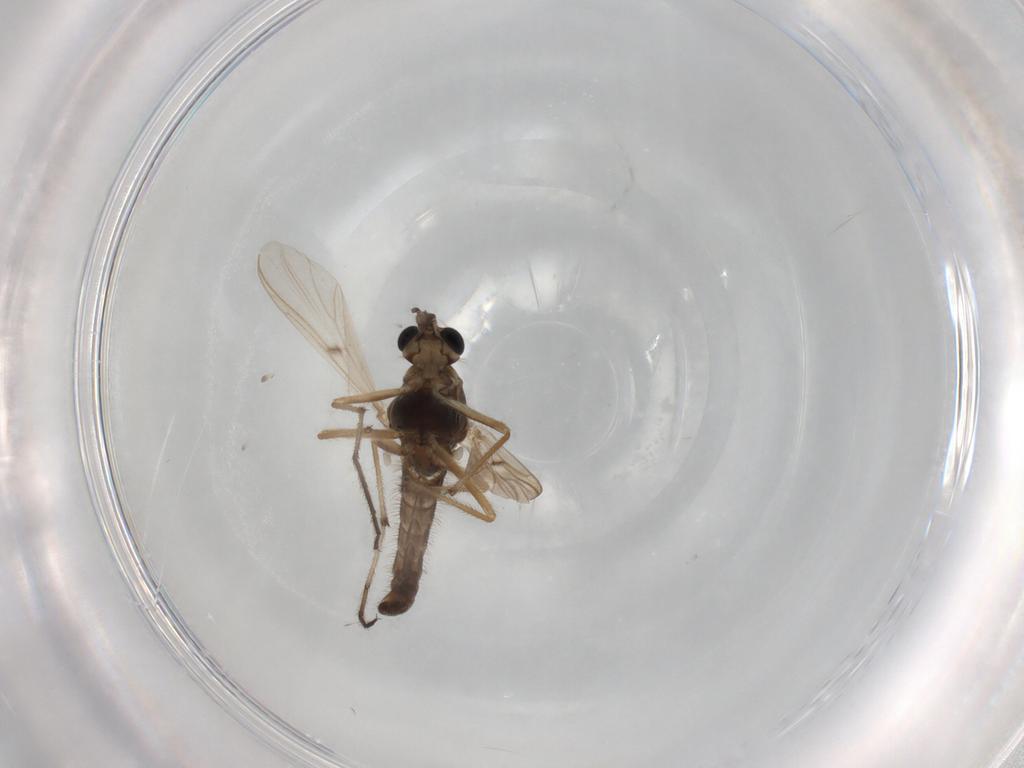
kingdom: Animalia
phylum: Arthropoda
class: Insecta
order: Diptera
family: Chironomidae
